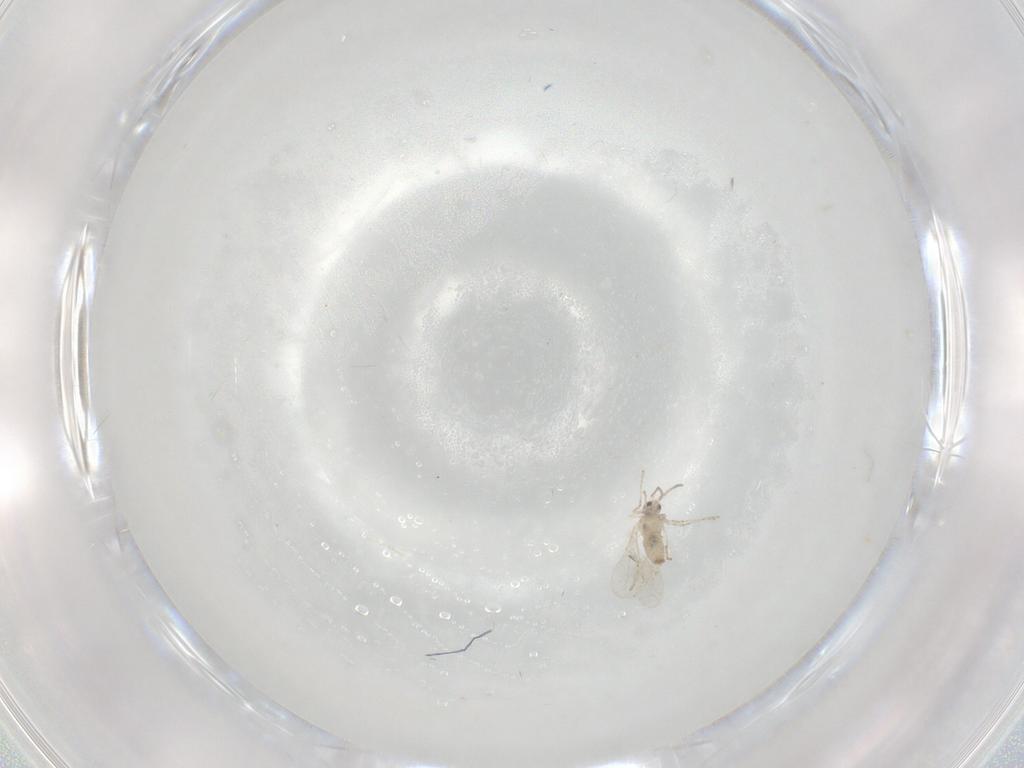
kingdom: Animalia
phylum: Arthropoda
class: Insecta
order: Diptera
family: Cecidomyiidae
